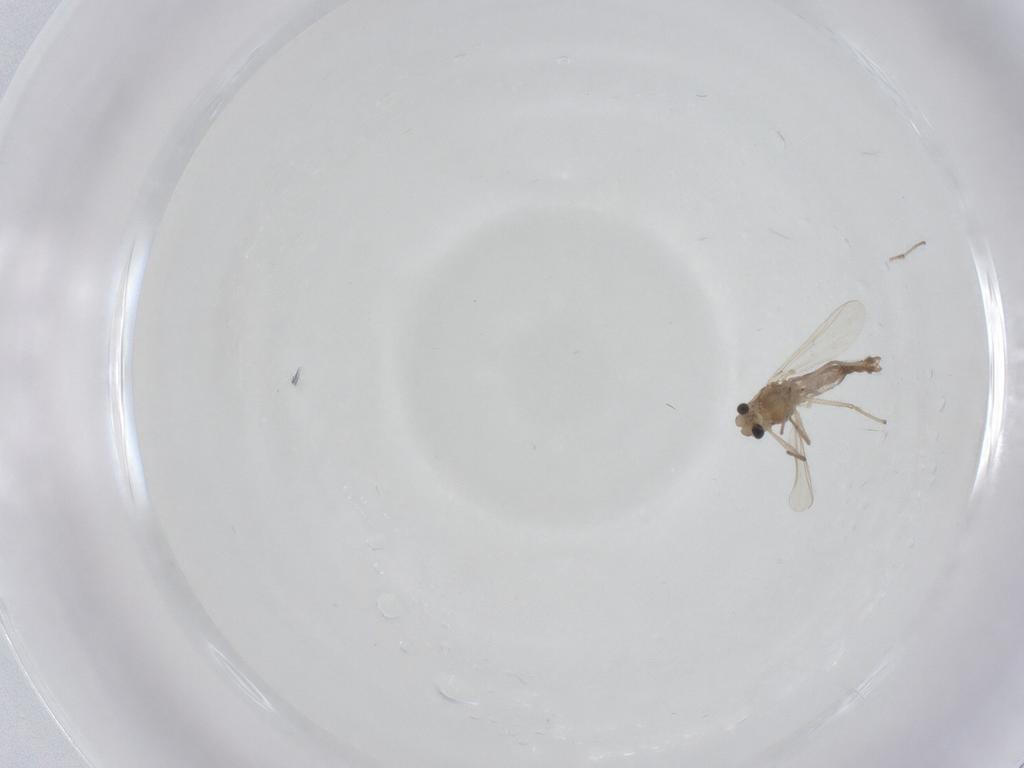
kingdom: Animalia
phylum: Arthropoda
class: Insecta
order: Diptera
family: Chironomidae
